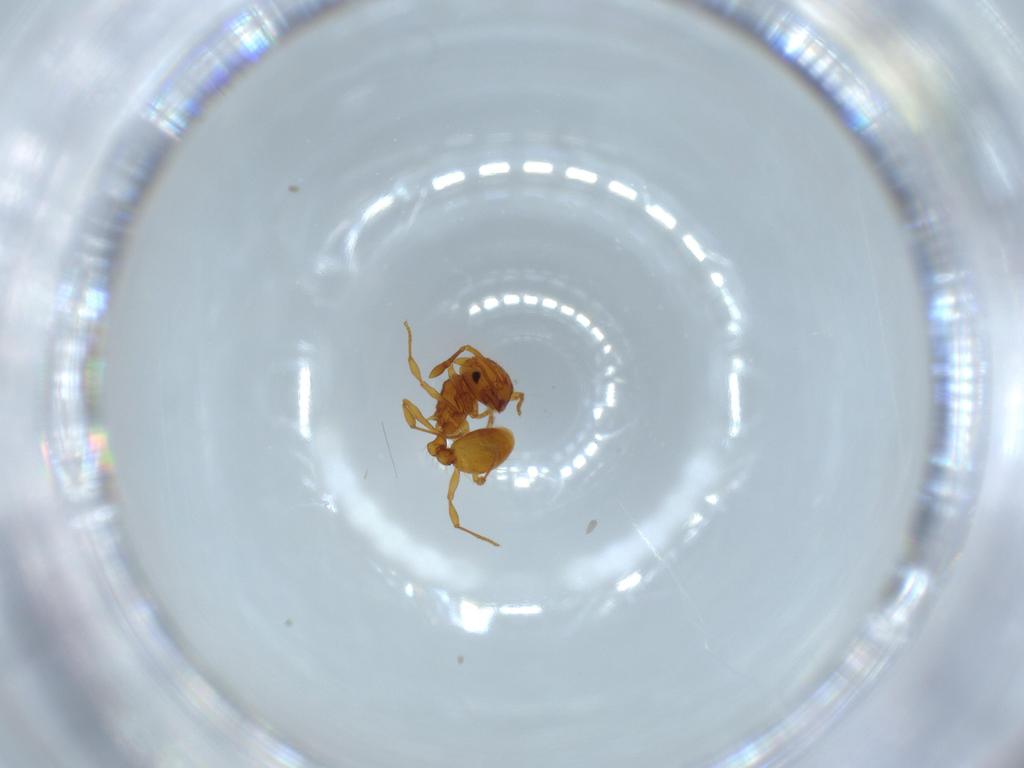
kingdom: Animalia
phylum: Arthropoda
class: Insecta
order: Hymenoptera
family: Formicidae
